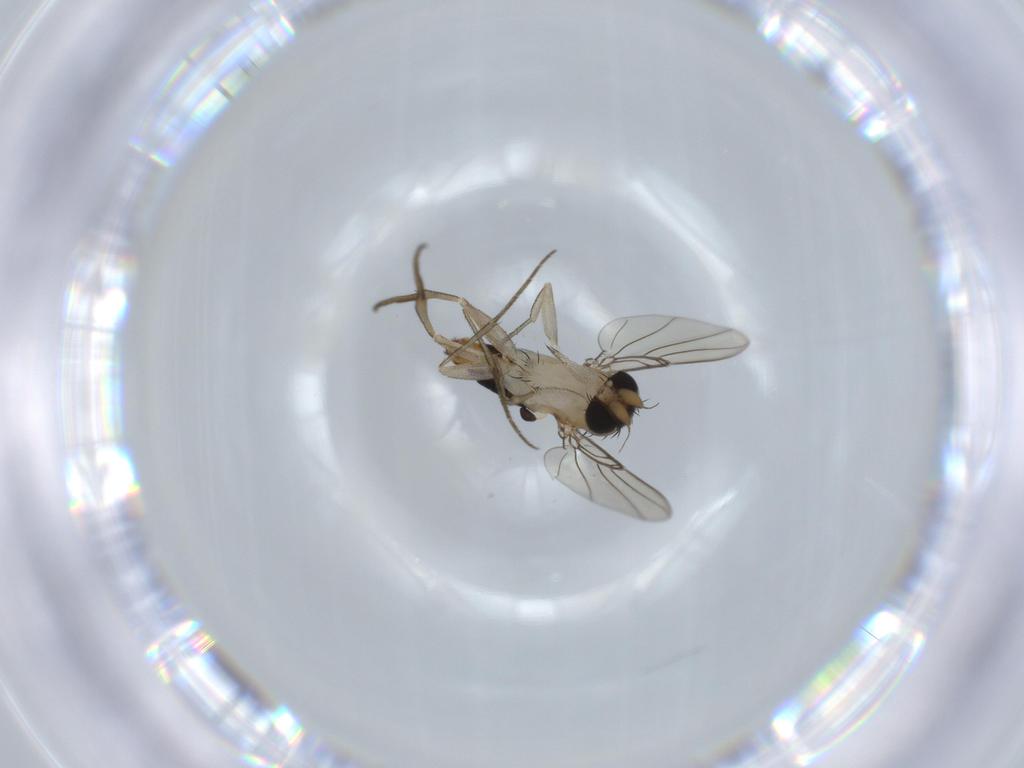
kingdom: Animalia
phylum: Arthropoda
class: Insecta
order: Diptera
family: Phoridae
